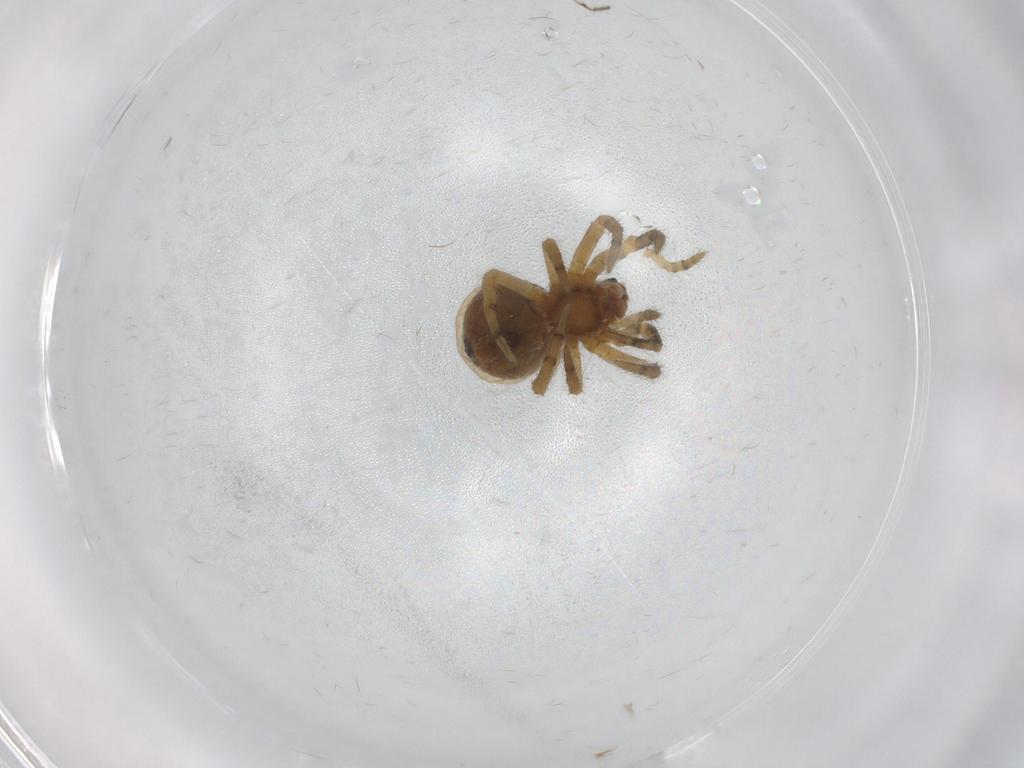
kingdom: Animalia
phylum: Arthropoda
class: Arachnida
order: Araneae
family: Araneidae
